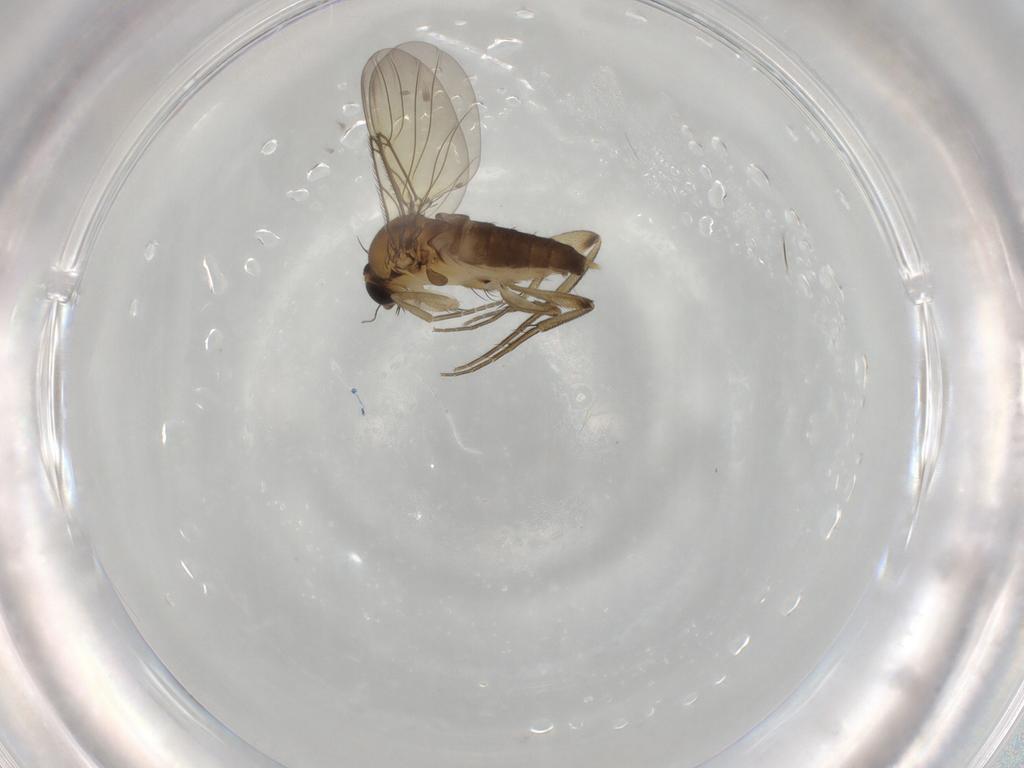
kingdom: Animalia
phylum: Arthropoda
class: Insecta
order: Diptera
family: Phoridae
